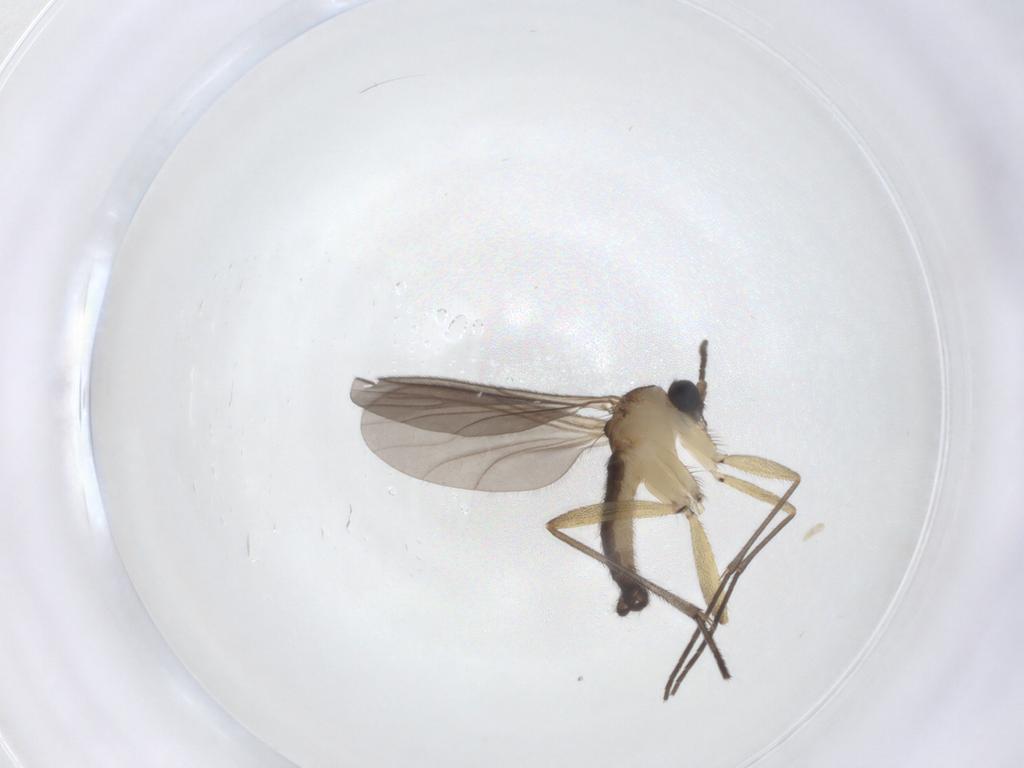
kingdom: Animalia
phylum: Arthropoda
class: Insecta
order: Diptera
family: Sciaridae
